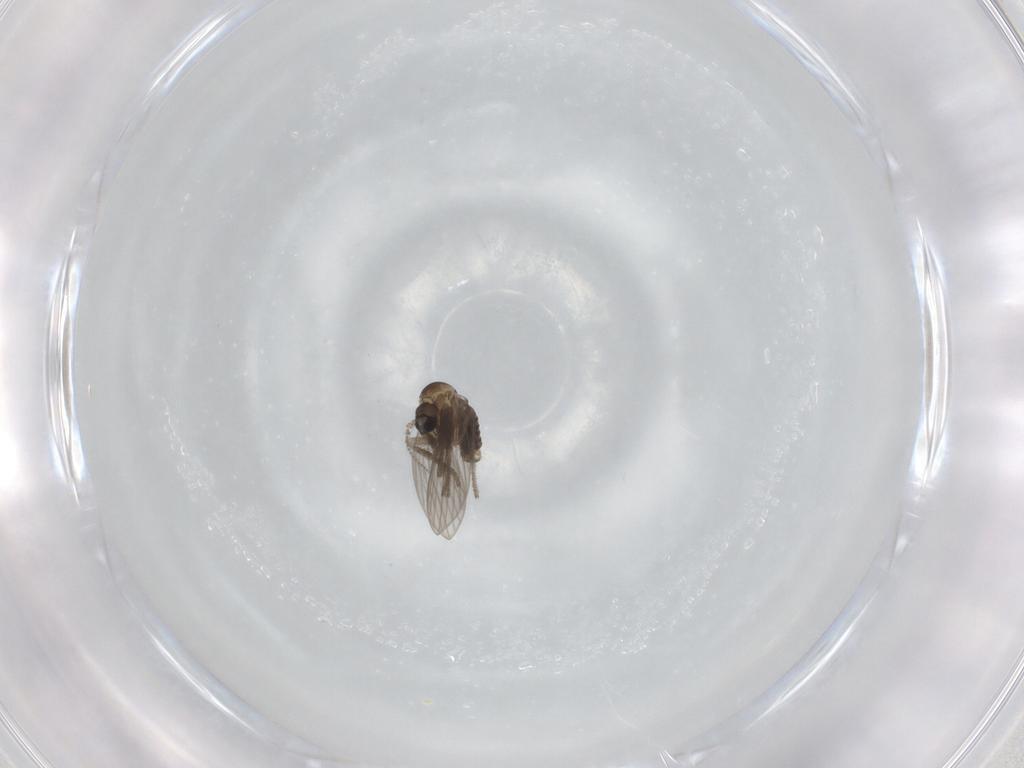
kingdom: Animalia
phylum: Arthropoda
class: Insecta
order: Diptera
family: Psychodidae
